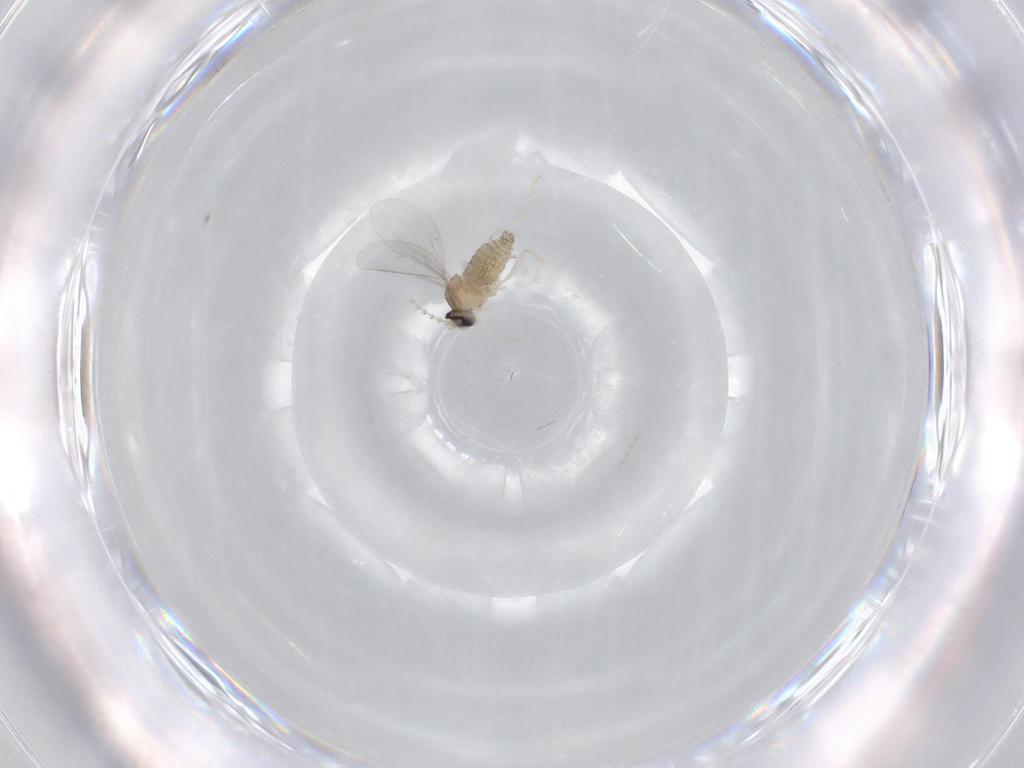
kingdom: Animalia
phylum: Arthropoda
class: Insecta
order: Diptera
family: Cecidomyiidae
